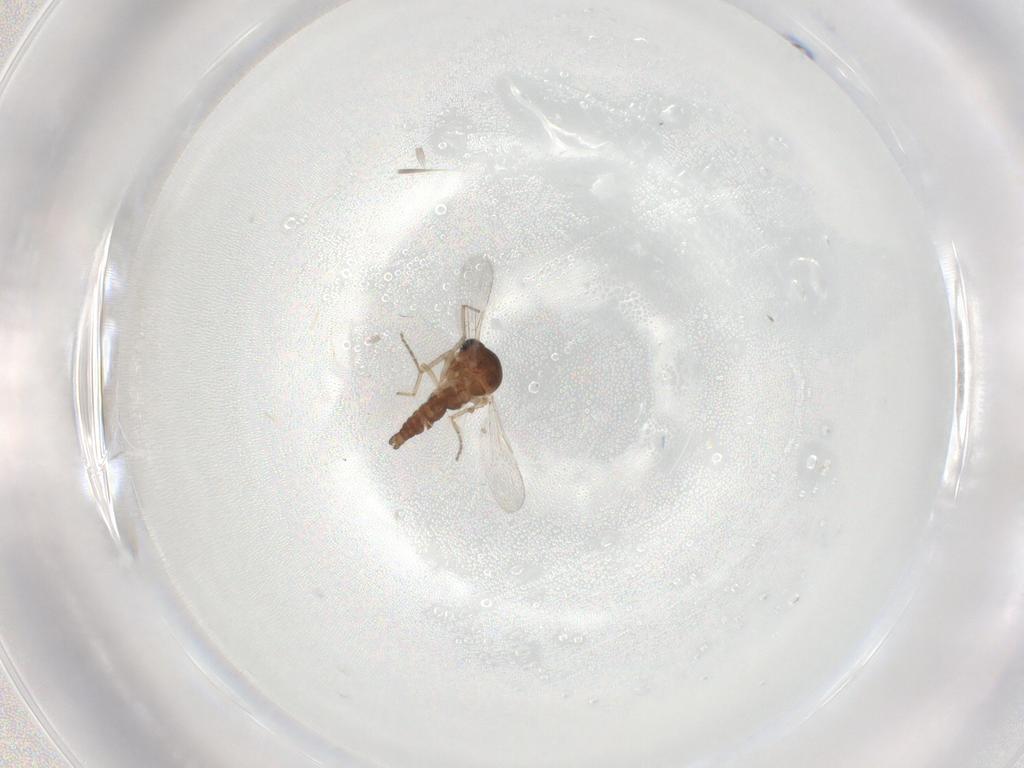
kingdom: Animalia
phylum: Arthropoda
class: Insecta
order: Diptera
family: Ceratopogonidae
